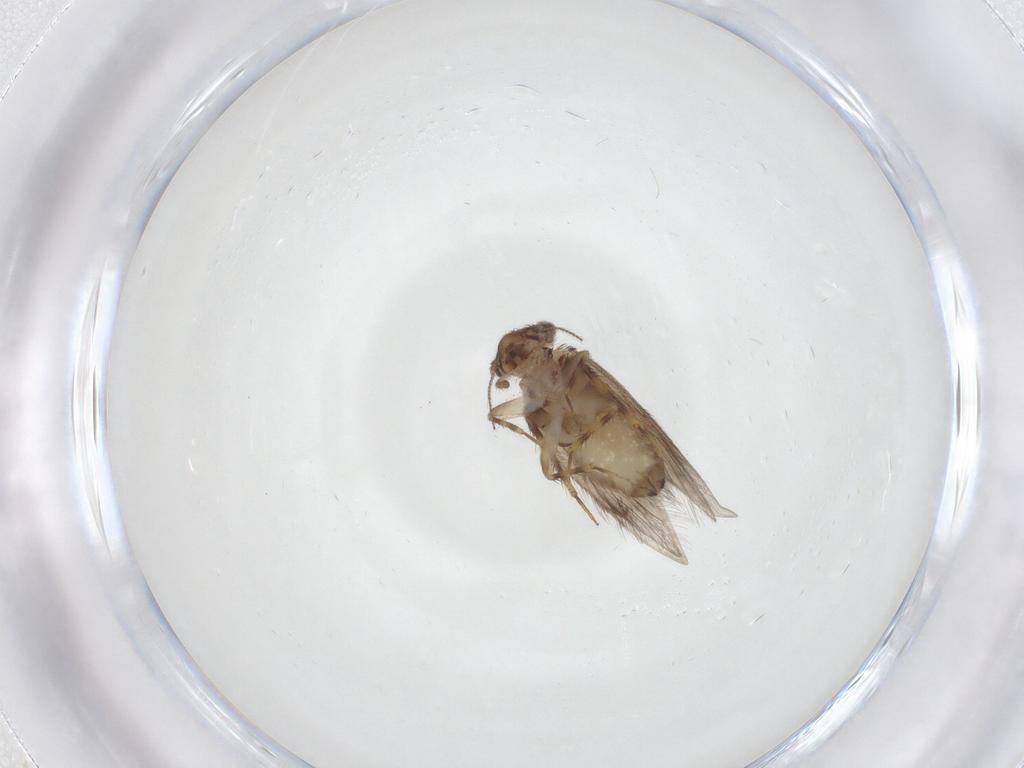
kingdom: Animalia
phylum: Arthropoda
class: Insecta
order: Psocodea
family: Lepidopsocidae
